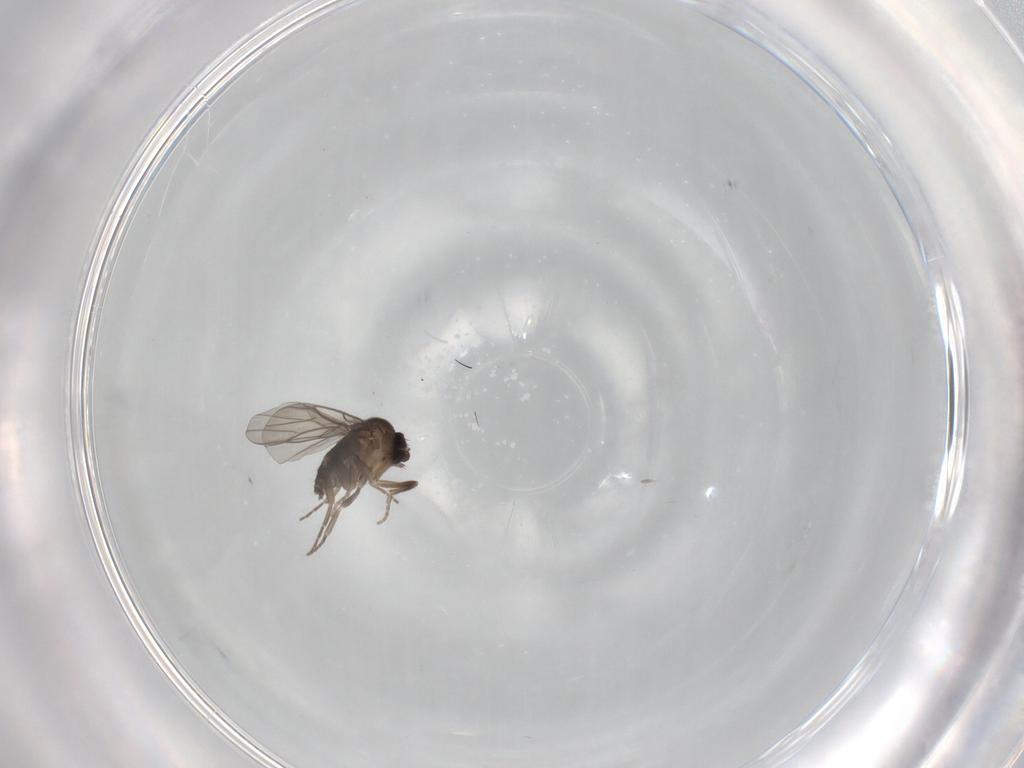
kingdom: Animalia
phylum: Arthropoda
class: Insecta
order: Diptera
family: Phoridae
